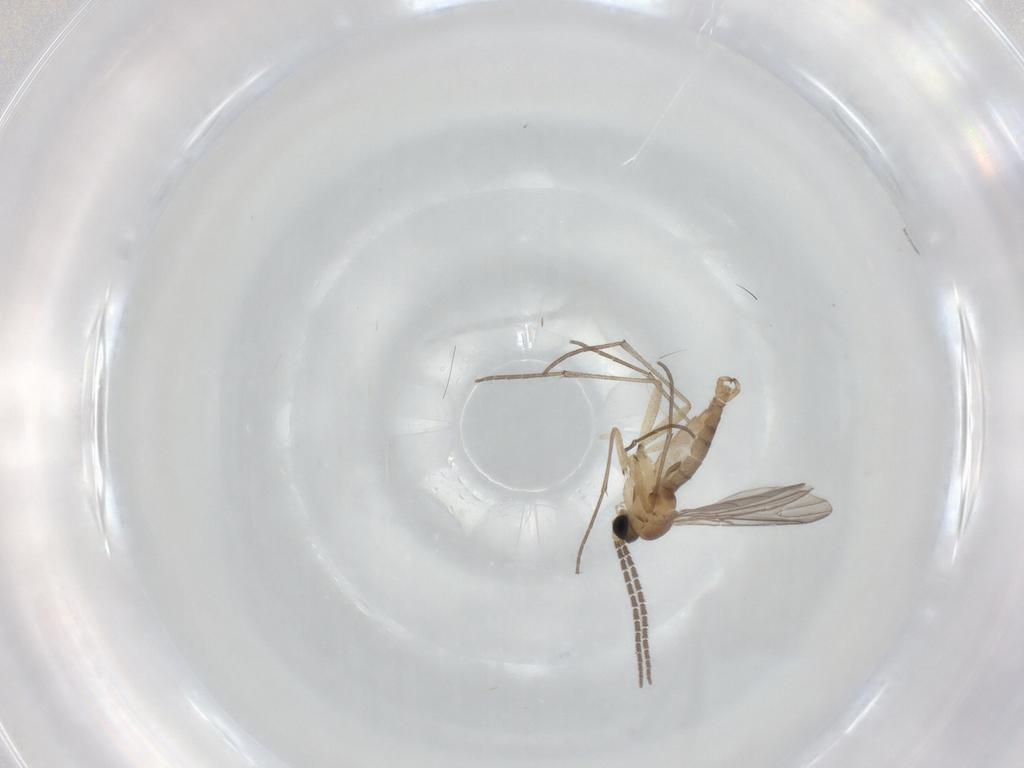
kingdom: Animalia
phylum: Arthropoda
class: Insecta
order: Diptera
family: Sciaridae
